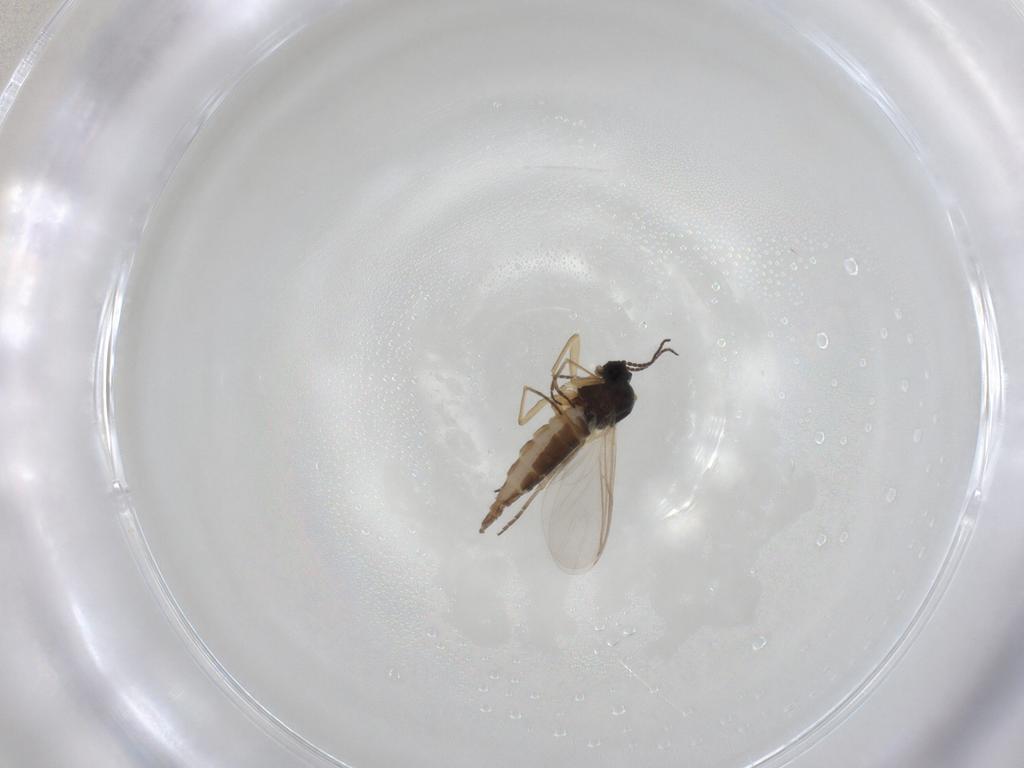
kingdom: Animalia
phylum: Arthropoda
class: Insecta
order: Diptera
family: Sciaridae
